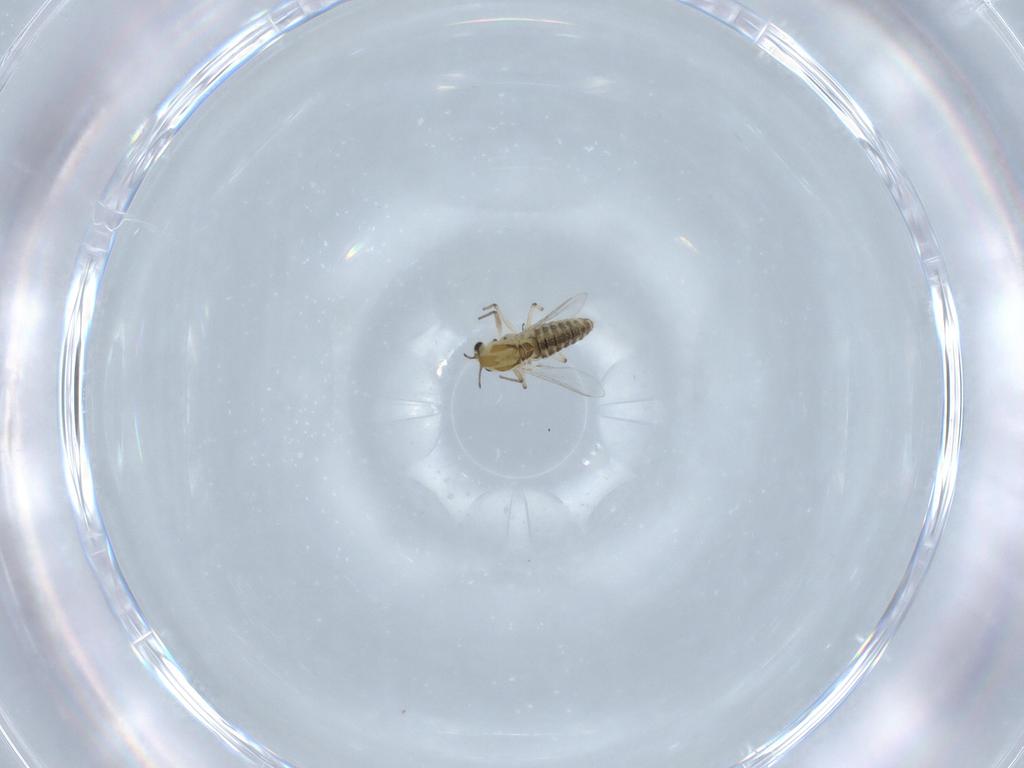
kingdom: Animalia
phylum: Arthropoda
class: Insecta
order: Diptera
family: Chironomidae
